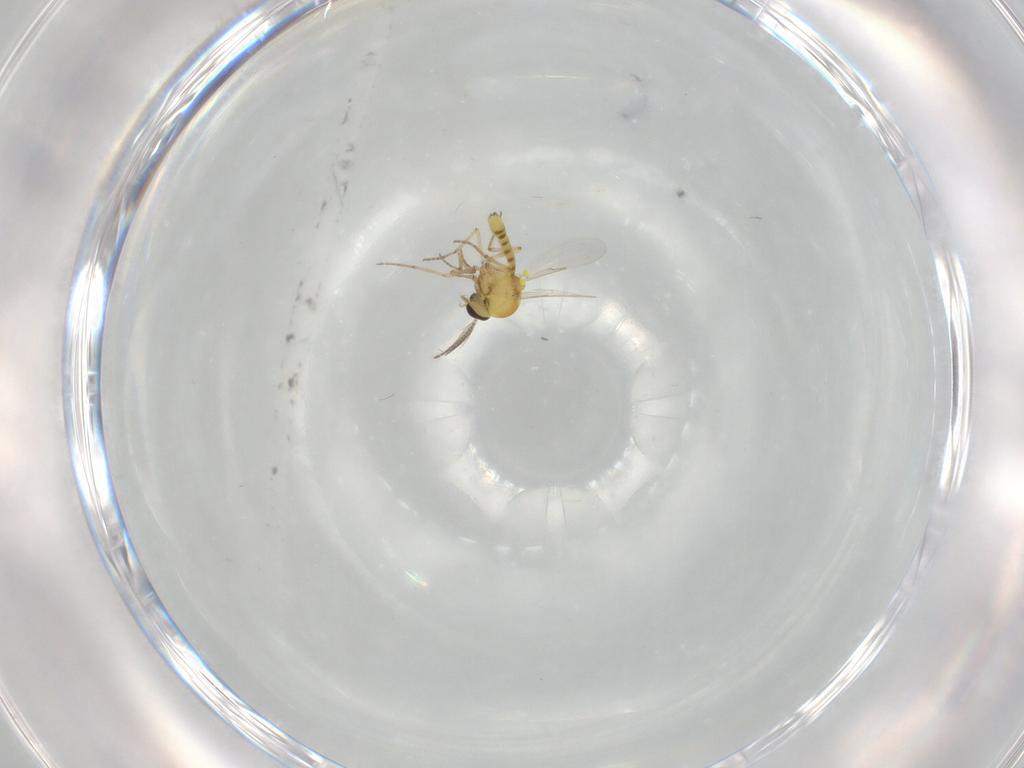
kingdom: Animalia
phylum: Arthropoda
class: Insecta
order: Diptera
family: Ceratopogonidae
